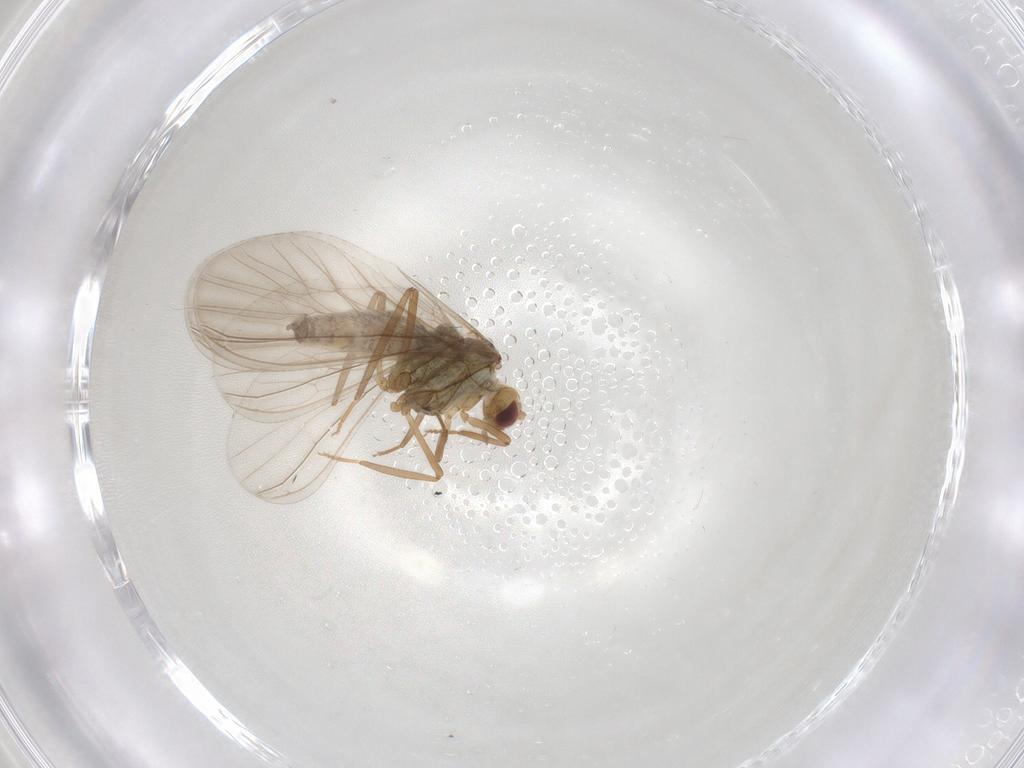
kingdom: Animalia
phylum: Arthropoda
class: Insecta
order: Neuroptera
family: Coniopterygidae
